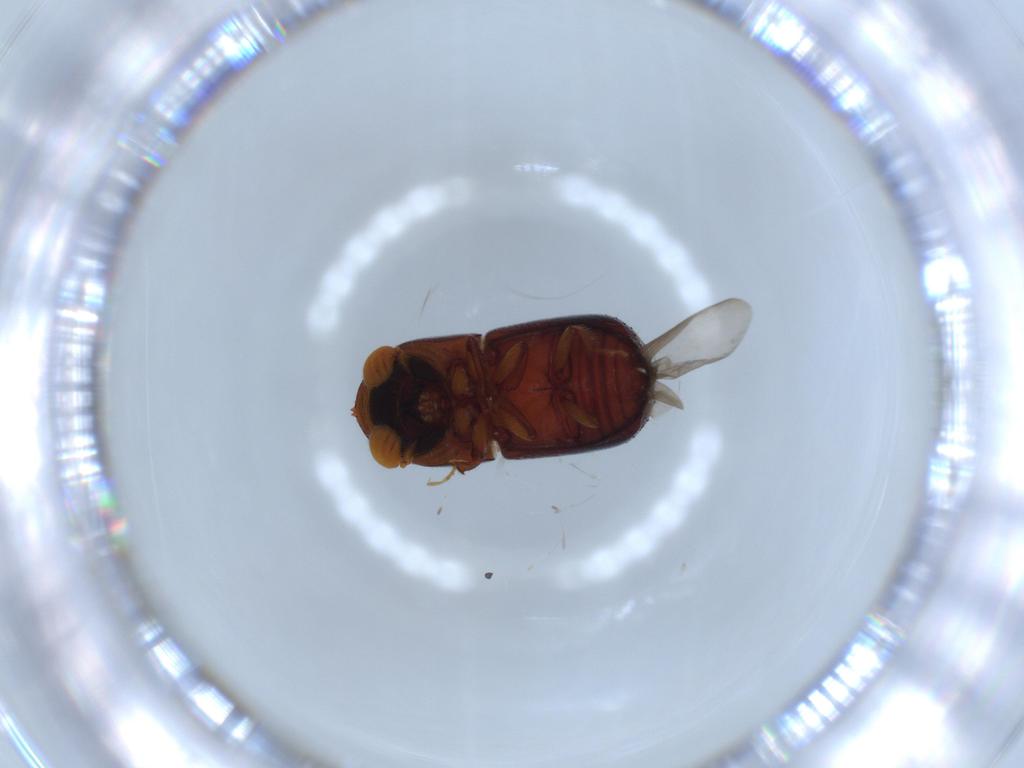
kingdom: Animalia
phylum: Arthropoda
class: Insecta
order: Coleoptera
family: Curculionidae
